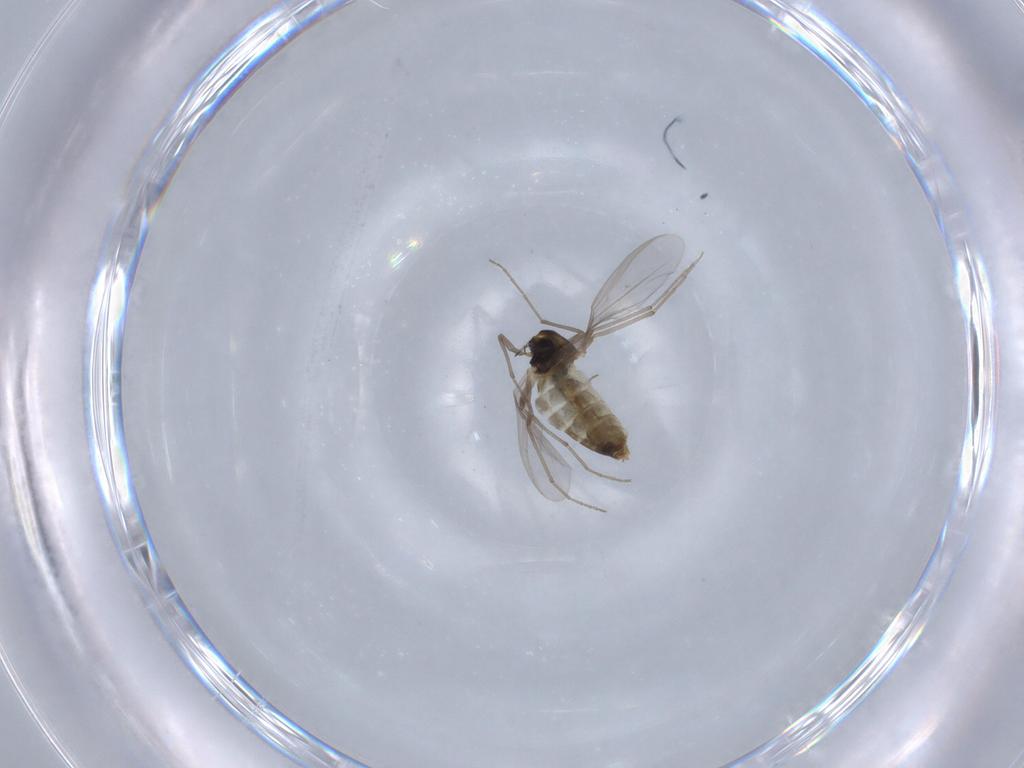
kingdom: Animalia
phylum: Arthropoda
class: Insecta
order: Diptera
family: Chironomidae
